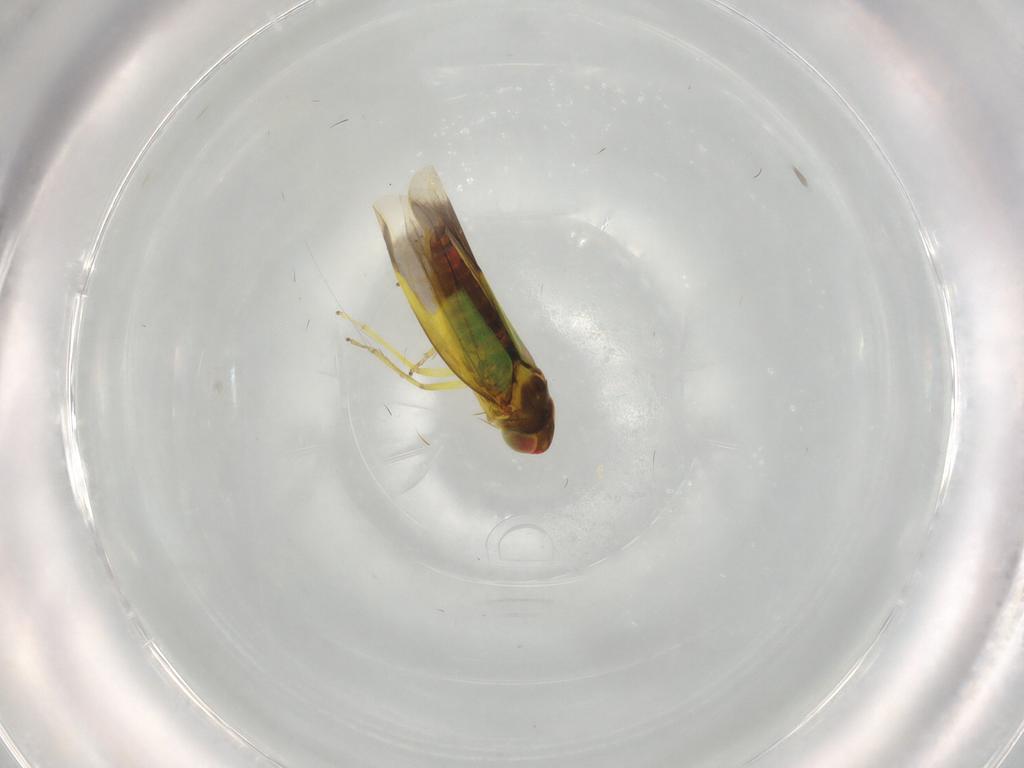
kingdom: Animalia
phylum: Arthropoda
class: Insecta
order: Hemiptera
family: Cicadellidae
